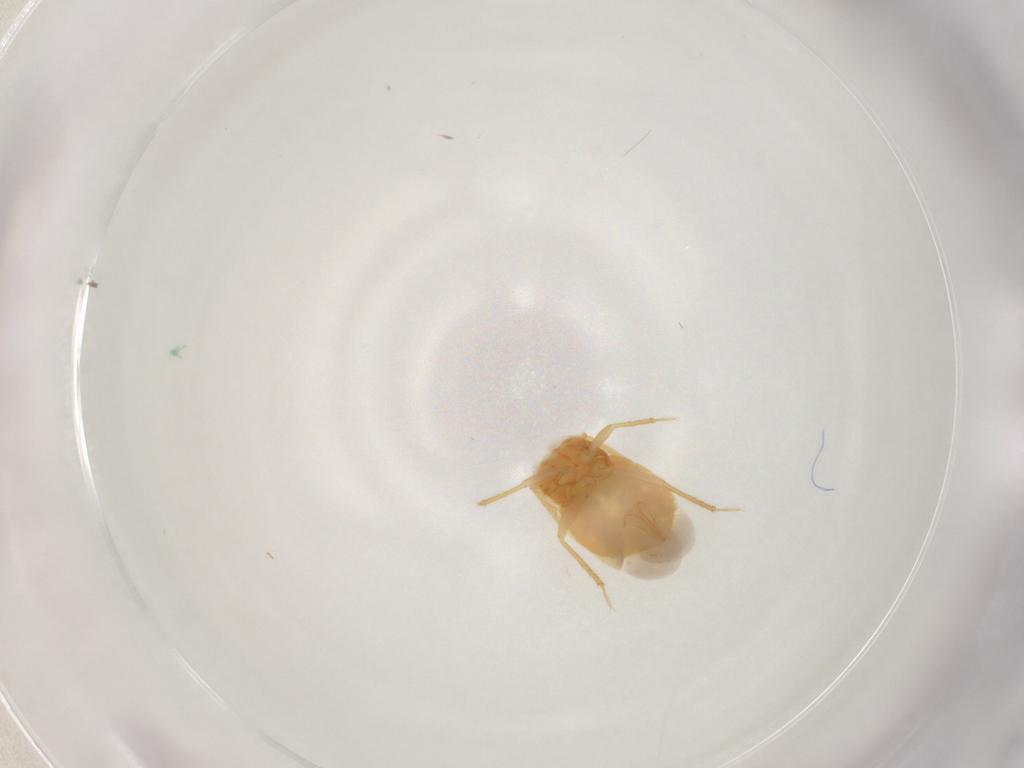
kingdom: Animalia
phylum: Arthropoda
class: Insecta
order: Hemiptera
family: Lasiochilidae
